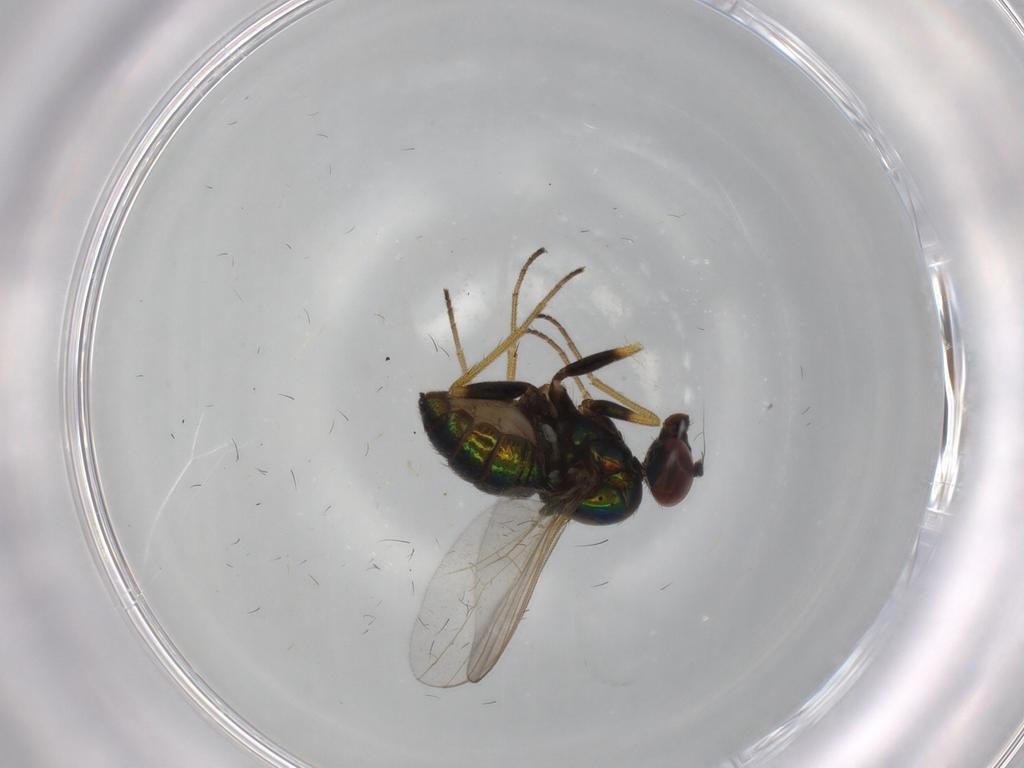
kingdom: Animalia
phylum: Arthropoda
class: Insecta
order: Diptera
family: Dolichopodidae
